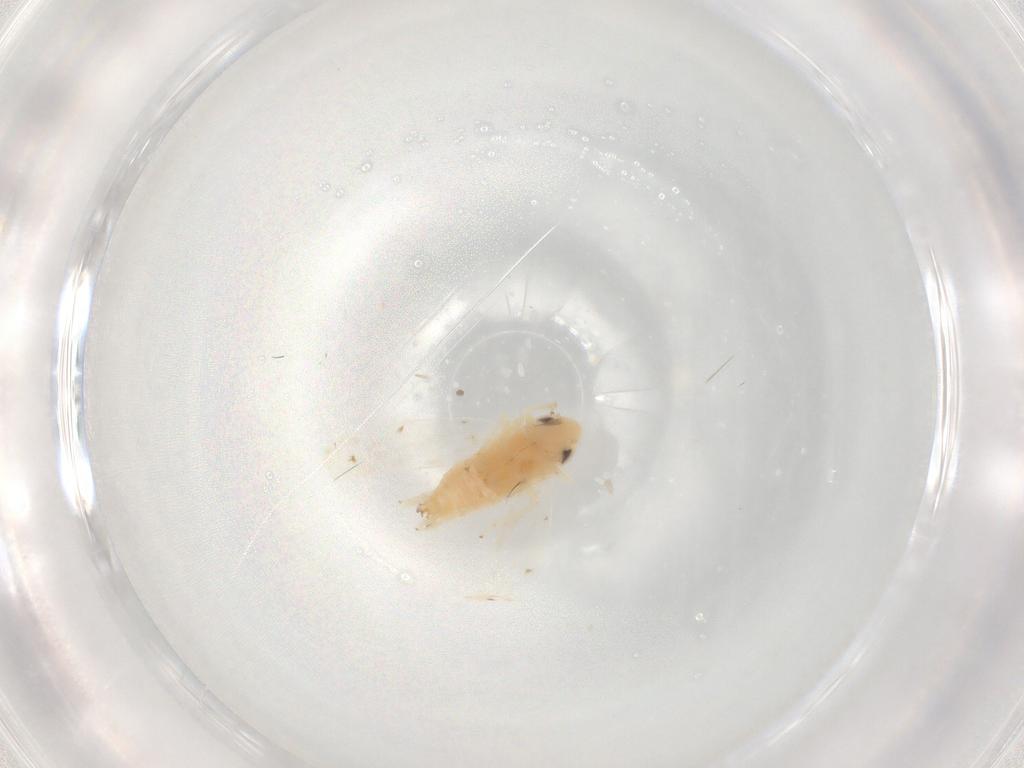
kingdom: Animalia
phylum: Arthropoda
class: Insecta
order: Hemiptera
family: Cicadellidae
